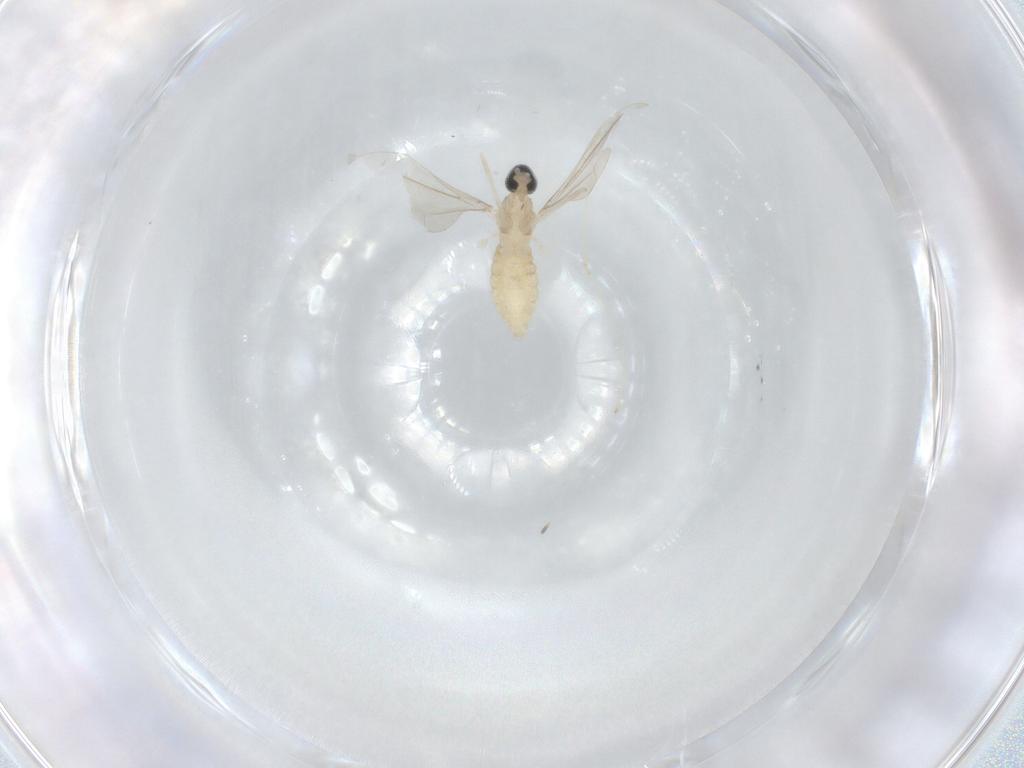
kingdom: Animalia
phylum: Arthropoda
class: Insecta
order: Diptera
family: Cecidomyiidae
